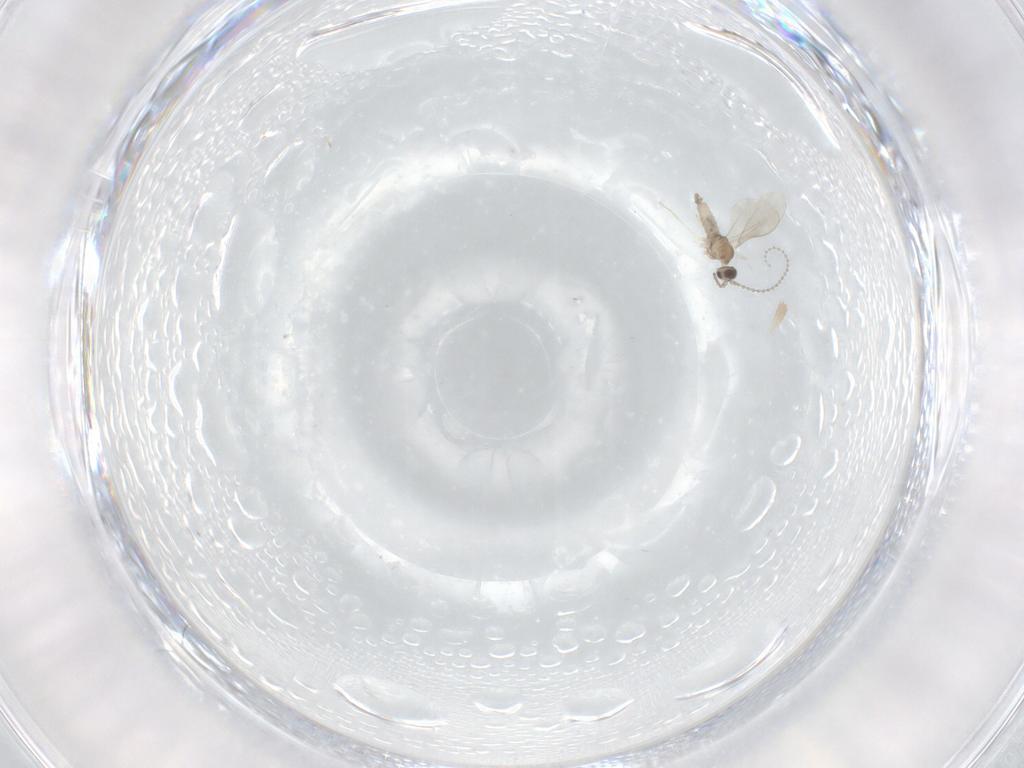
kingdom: Animalia
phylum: Arthropoda
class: Insecta
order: Diptera
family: Cecidomyiidae
